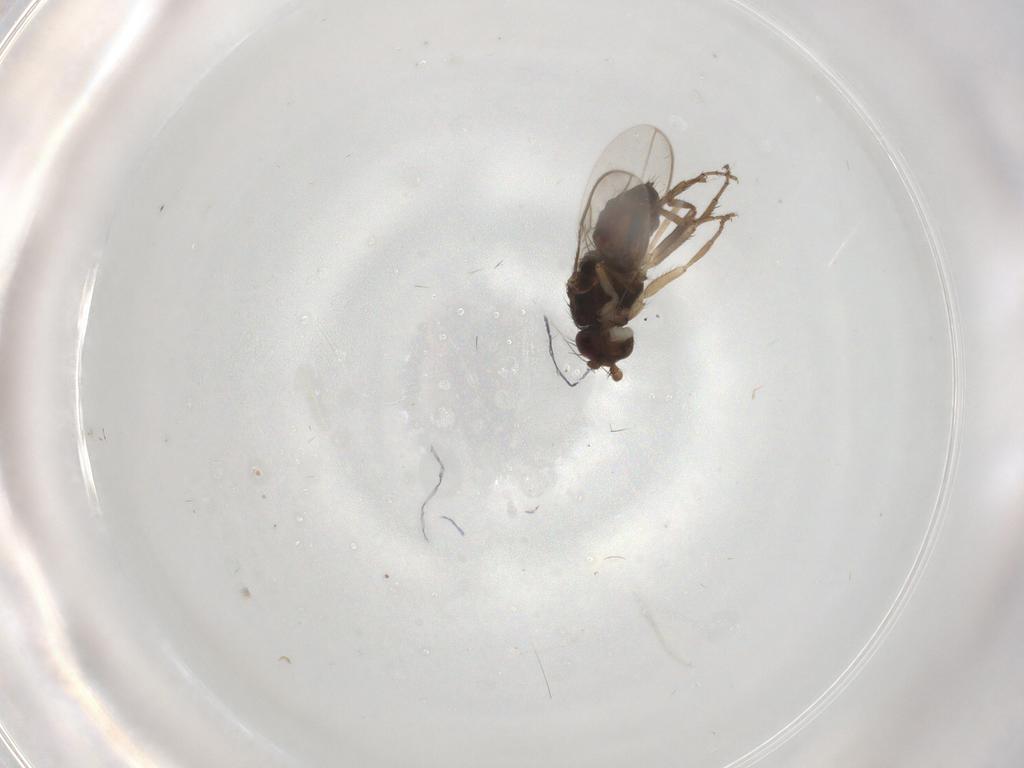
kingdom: Animalia
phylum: Arthropoda
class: Insecta
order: Diptera
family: Sphaeroceridae
